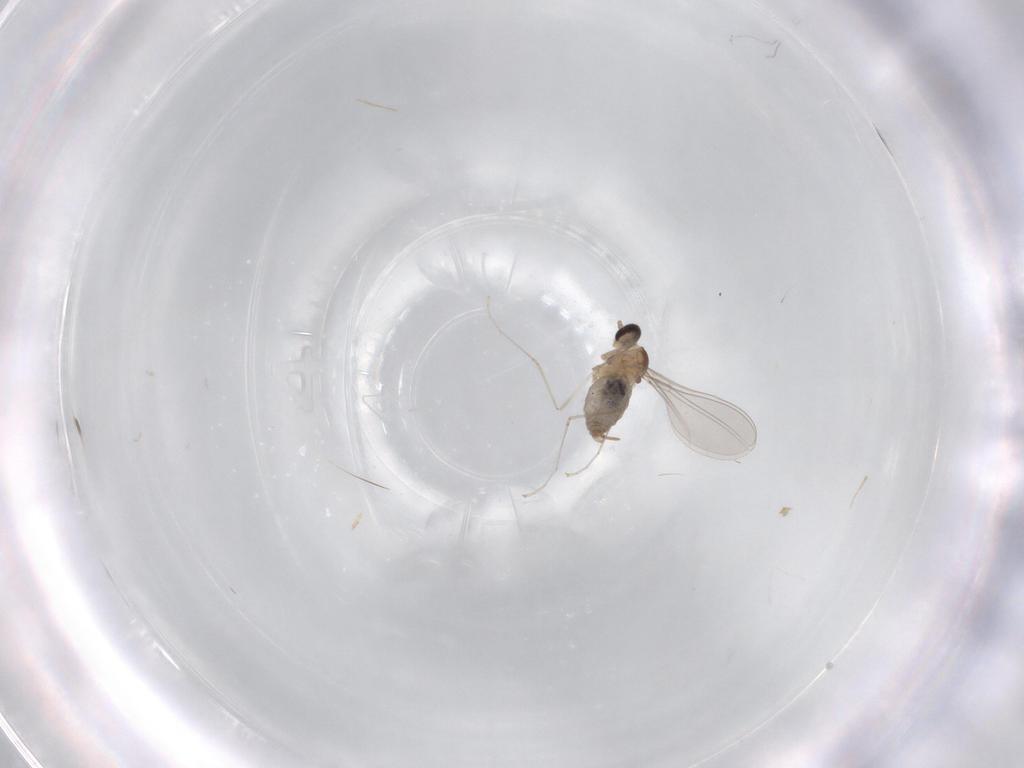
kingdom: Animalia
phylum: Arthropoda
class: Insecta
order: Diptera
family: Cecidomyiidae
